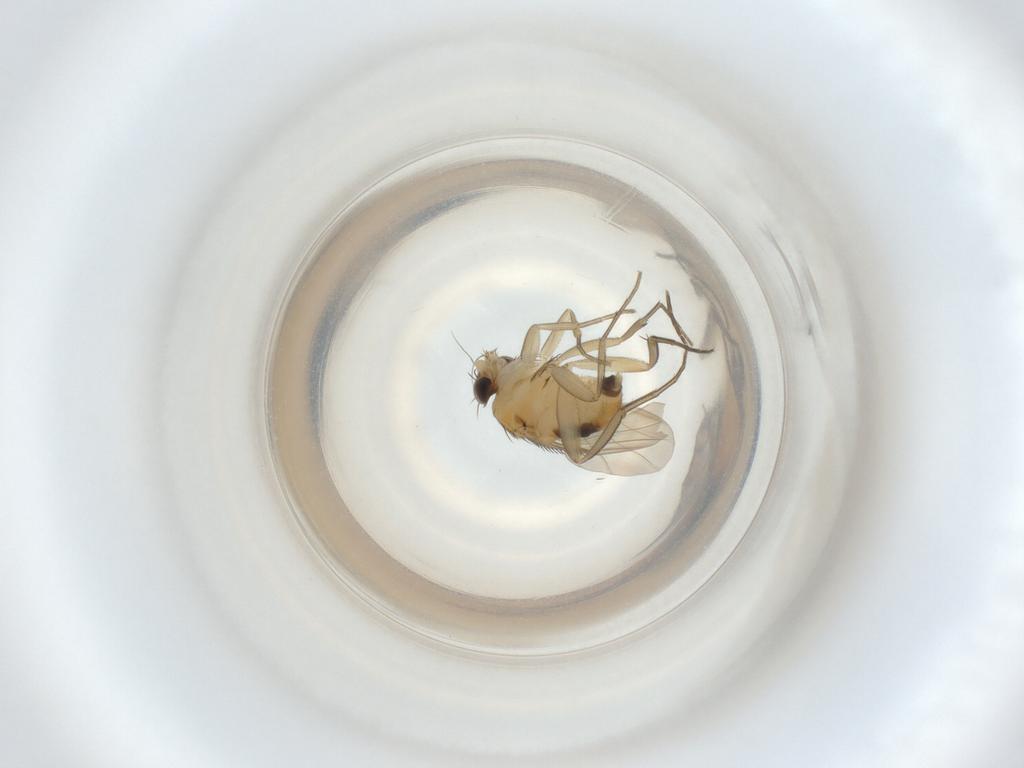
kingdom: Animalia
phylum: Arthropoda
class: Insecta
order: Diptera
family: Phoridae
